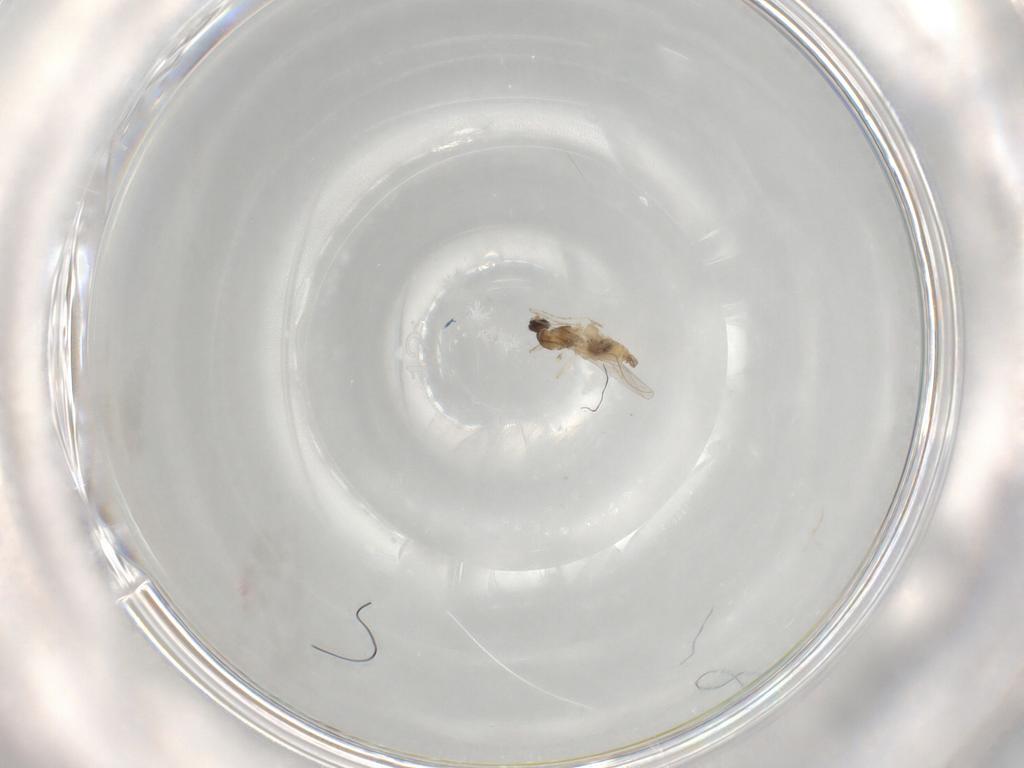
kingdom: Animalia
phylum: Arthropoda
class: Insecta
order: Diptera
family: Cecidomyiidae
